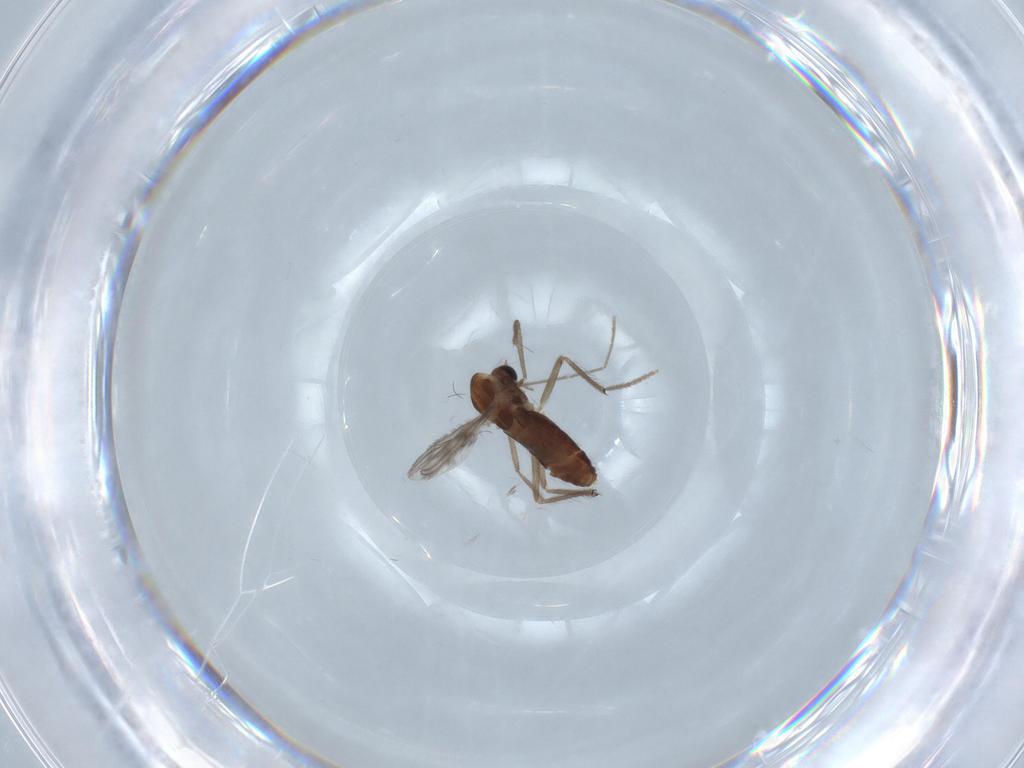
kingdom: Animalia
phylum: Arthropoda
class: Insecta
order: Diptera
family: Chironomidae
